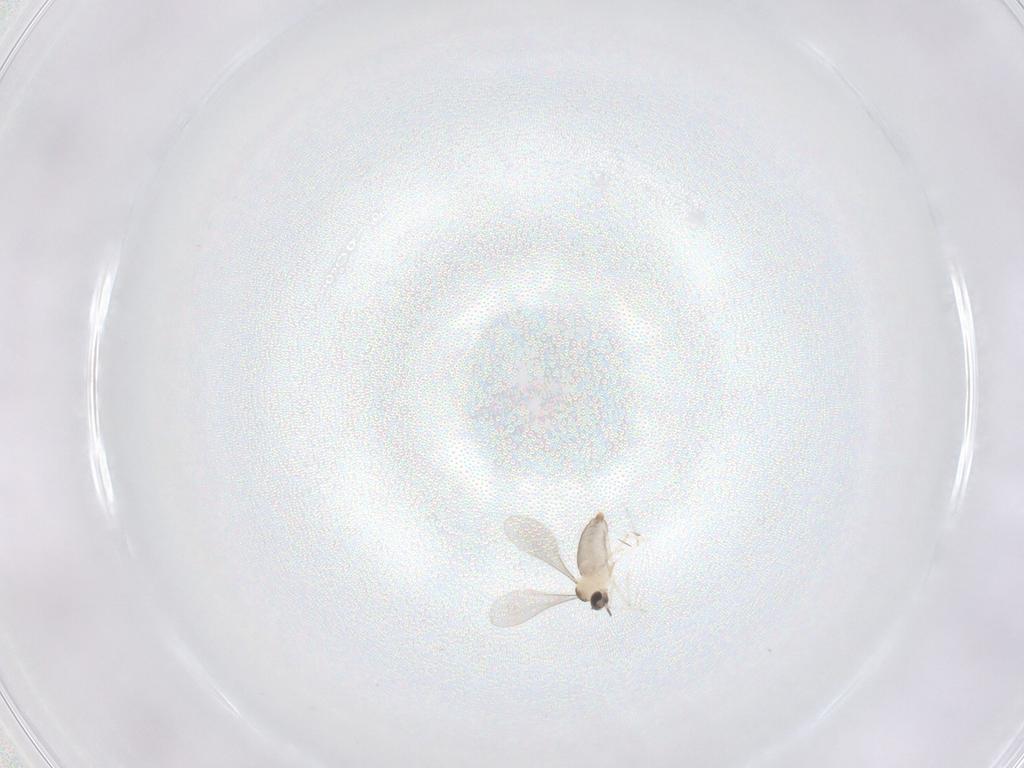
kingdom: Animalia
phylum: Arthropoda
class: Insecta
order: Diptera
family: Psychodidae
